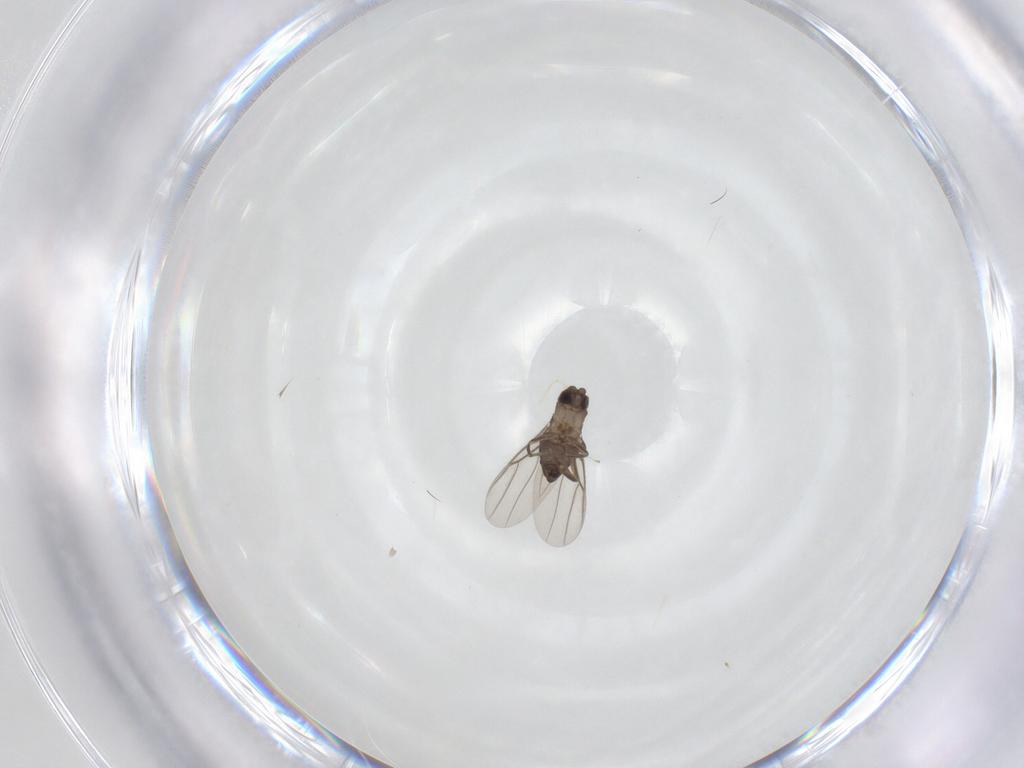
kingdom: Animalia
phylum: Arthropoda
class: Insecta
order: Diptera
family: Phoridae
